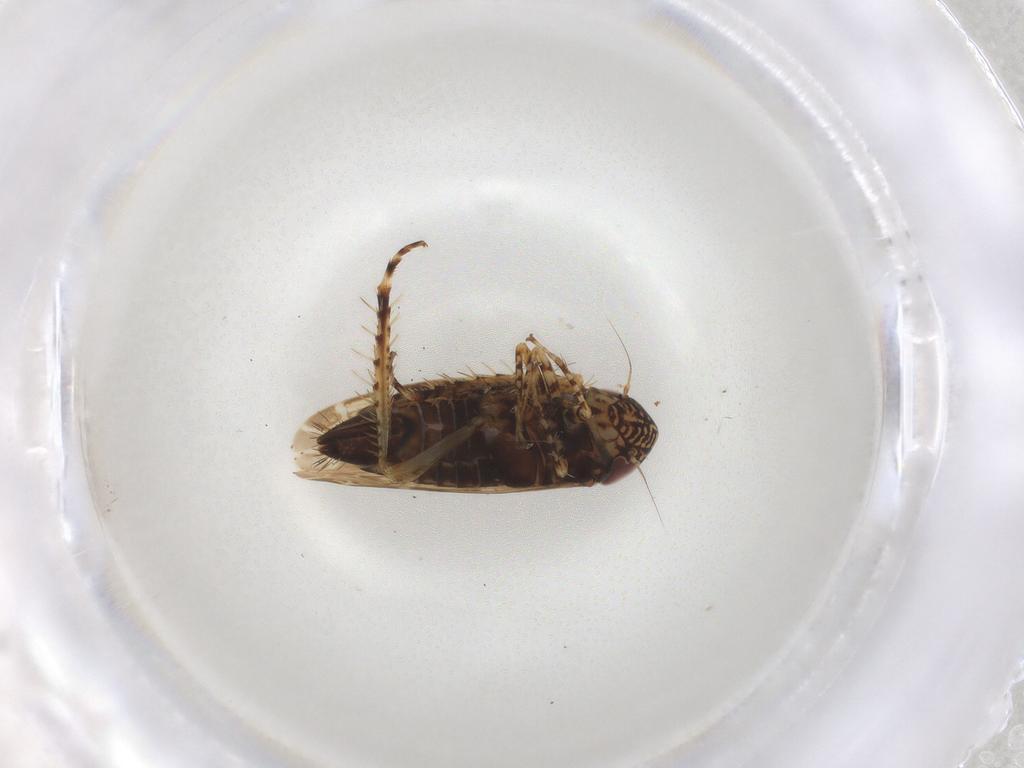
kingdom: Animalia
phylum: Arthropoda
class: Insecta
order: Hemiptera
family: Cicadellidae
